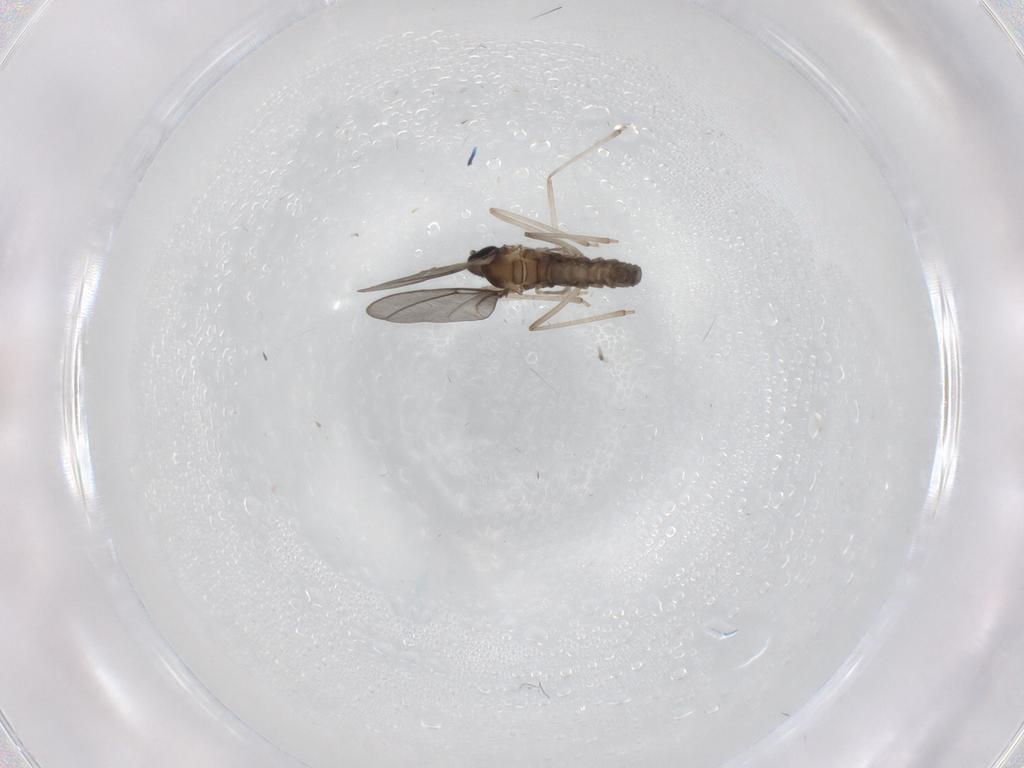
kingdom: Animalia
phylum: Arthropoda
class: Insecta
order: Diptera
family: Cecidomyiidae
